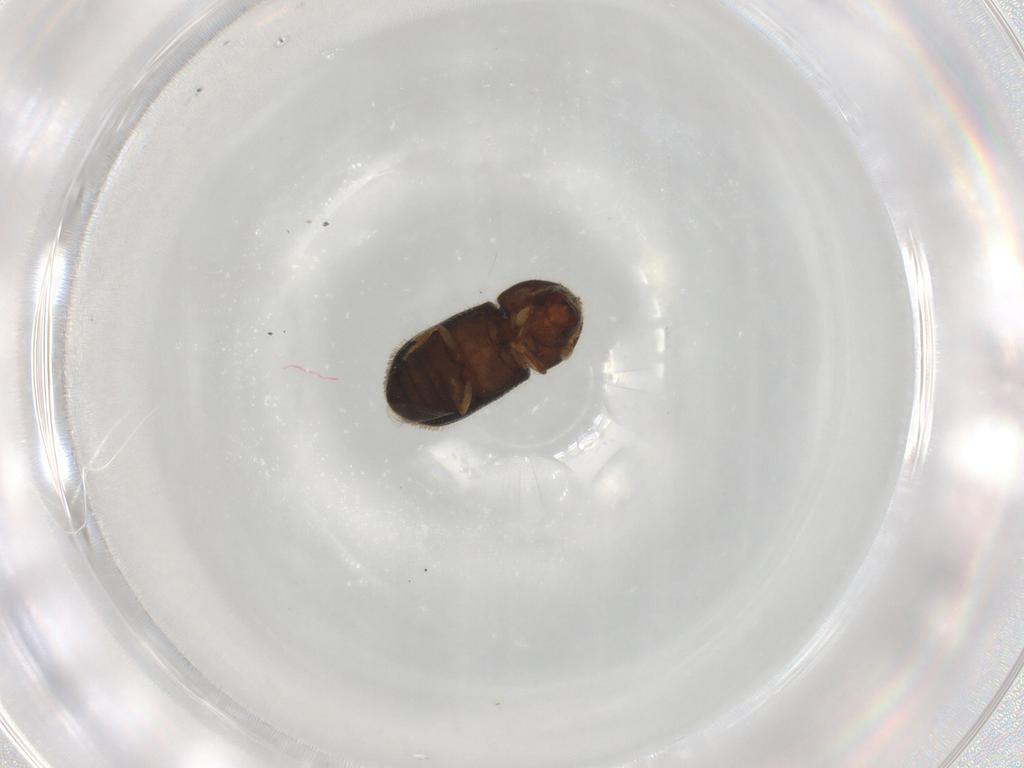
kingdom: Animalia
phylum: Arthropoda
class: Insecta
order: Coleoptera
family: Curculionidae
